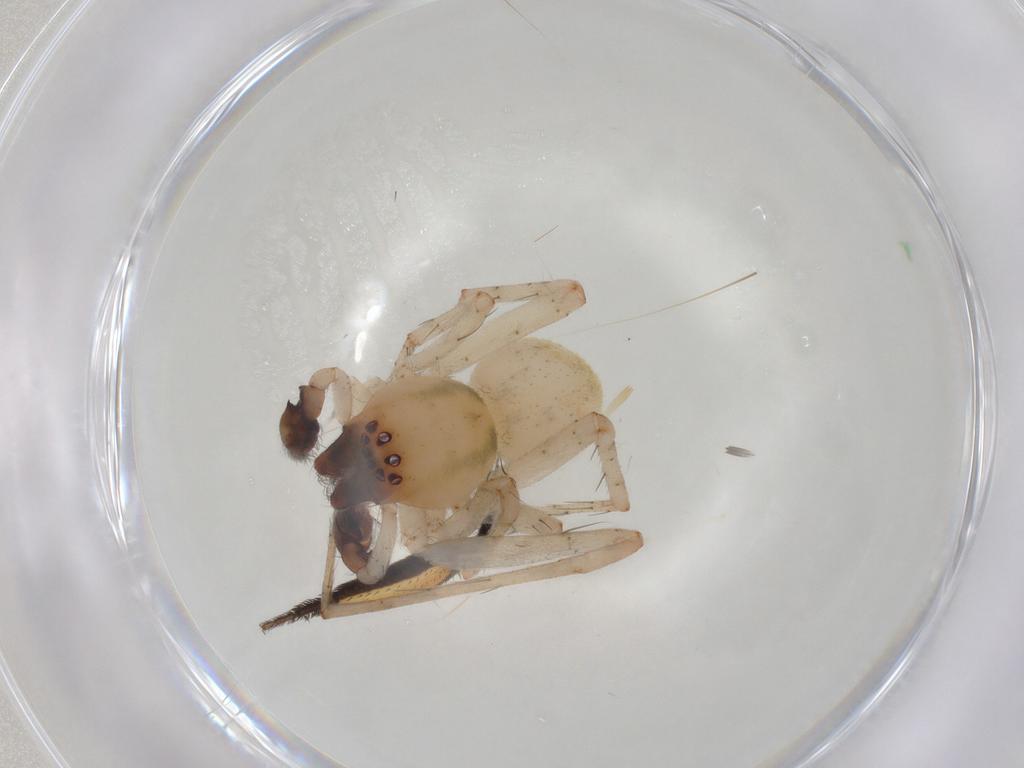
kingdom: Animalia
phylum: Arthropoda
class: Arachnida
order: Araneae
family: Anyphaenidae
